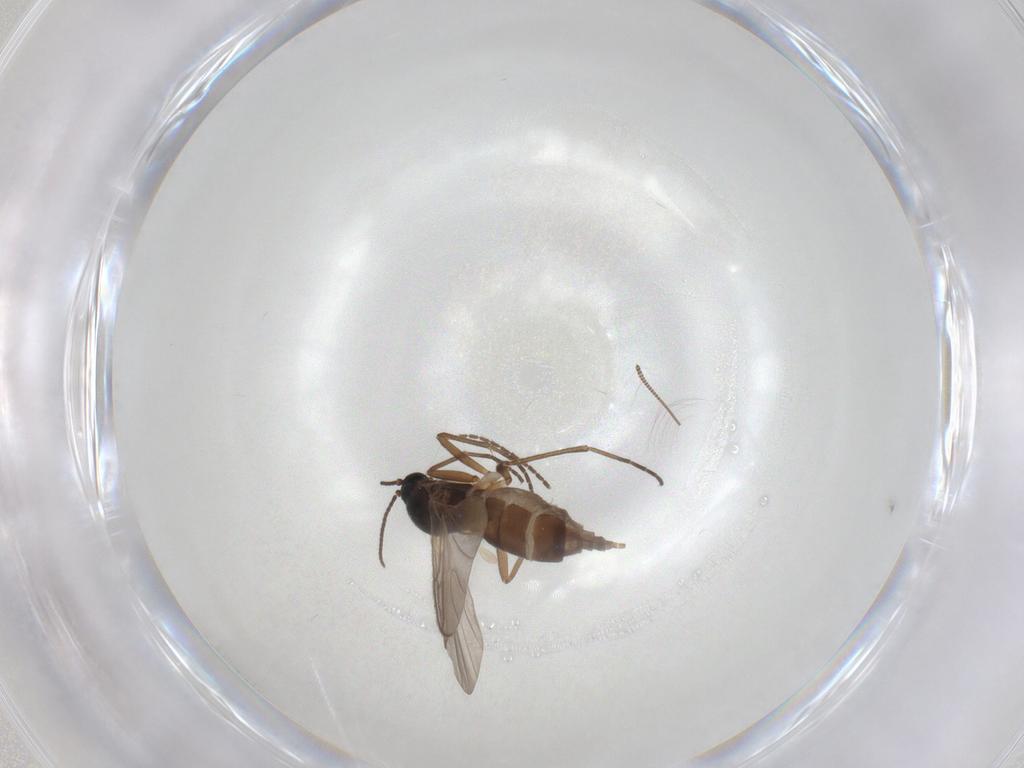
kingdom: Animalia
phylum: Arthropoda
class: Insecta
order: Diptera
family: Sciaridae
